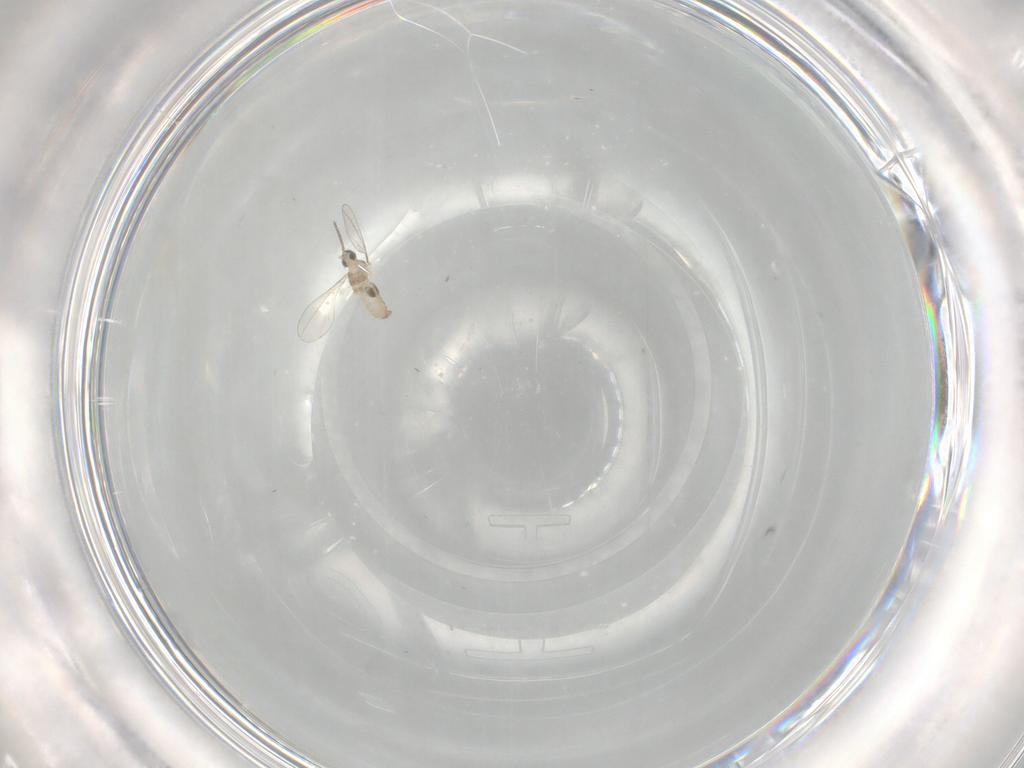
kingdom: Animalia
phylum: Arthropoda
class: Insecta
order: Diptera
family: Cecidomyiidae
